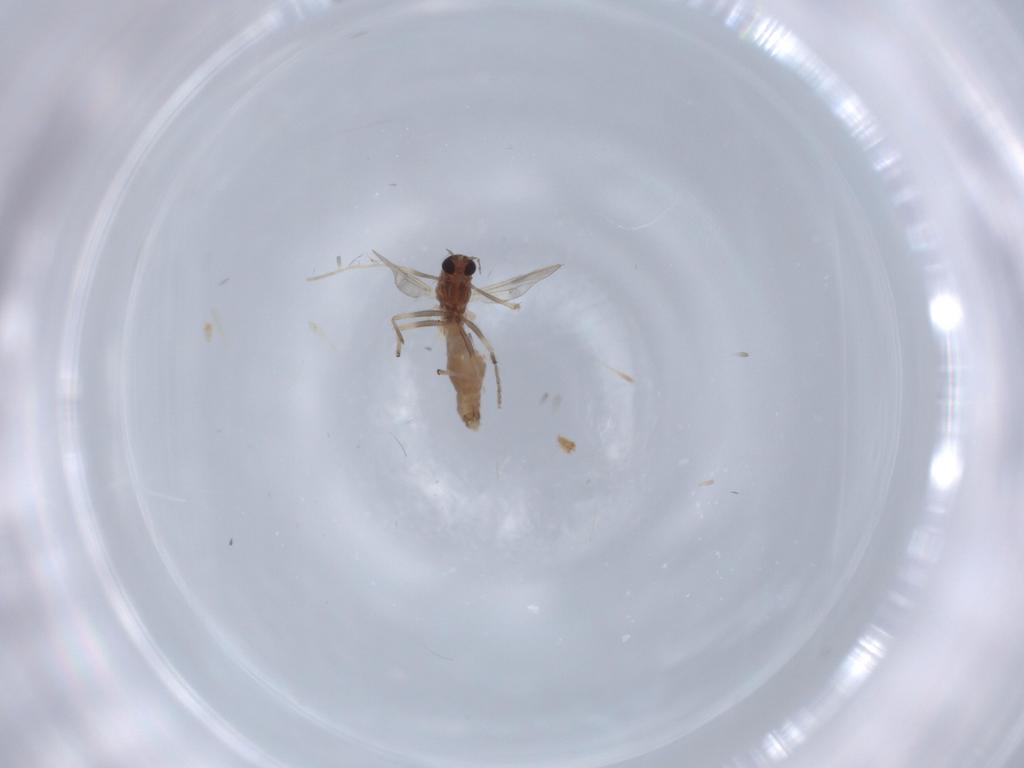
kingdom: Animalia
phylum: Arthropoda
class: Insecta
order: Diptera
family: Chironomidae
